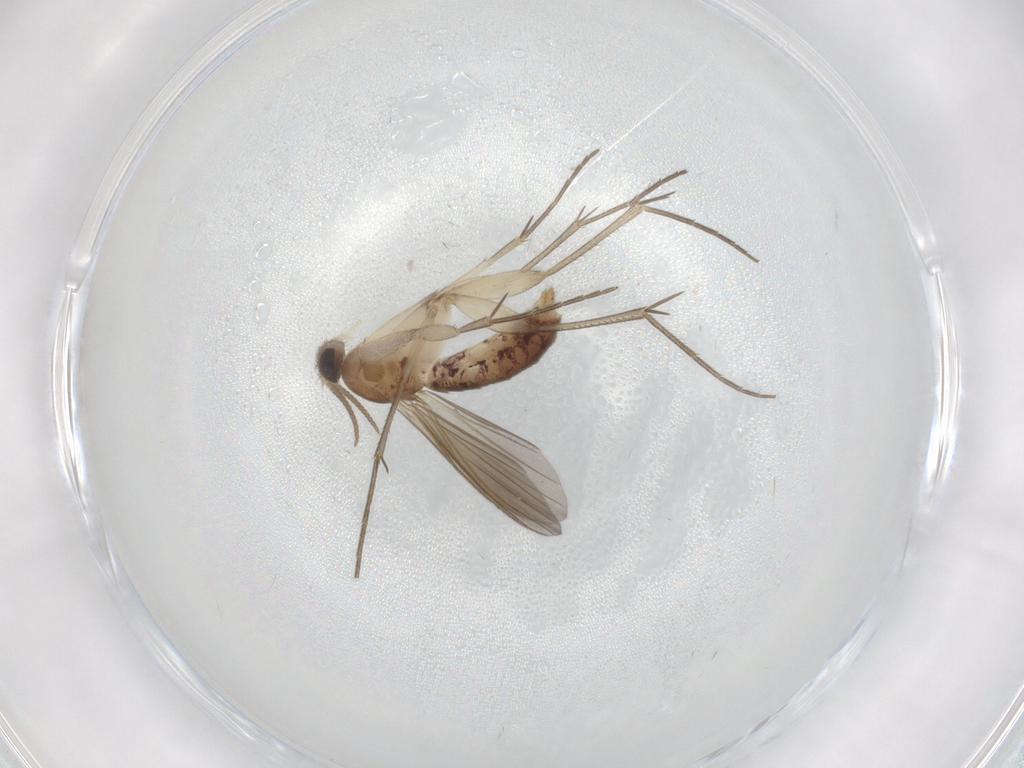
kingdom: Animalia
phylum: Arthropoda
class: Insecta
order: Diptera
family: Mycetophilidae
